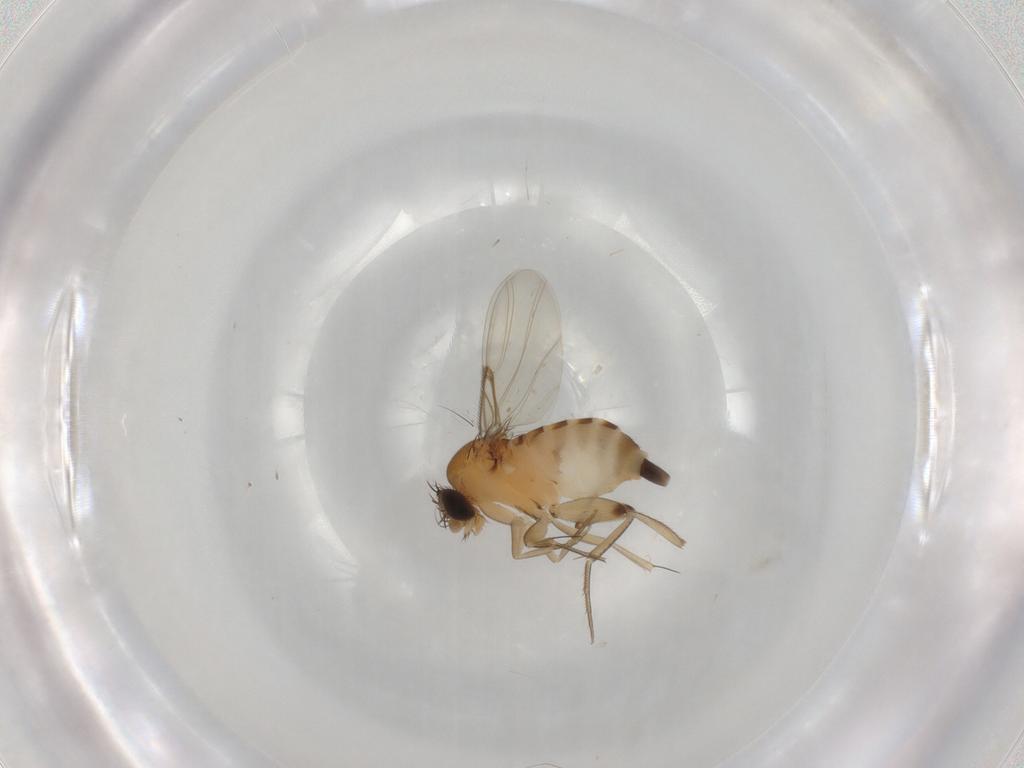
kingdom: Animalia
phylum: Arthropoda
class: Insecta
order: Diptera
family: Phoridae
